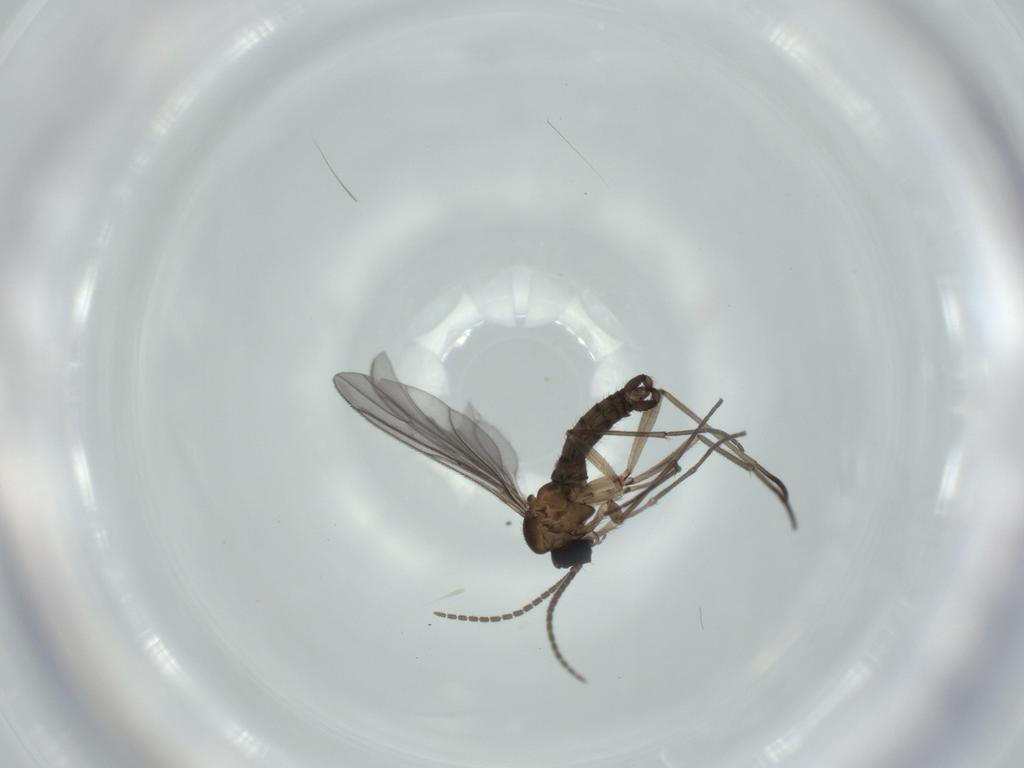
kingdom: Animalia
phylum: Arthropoda
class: Insecta
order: Diptera
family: Sciaridae
